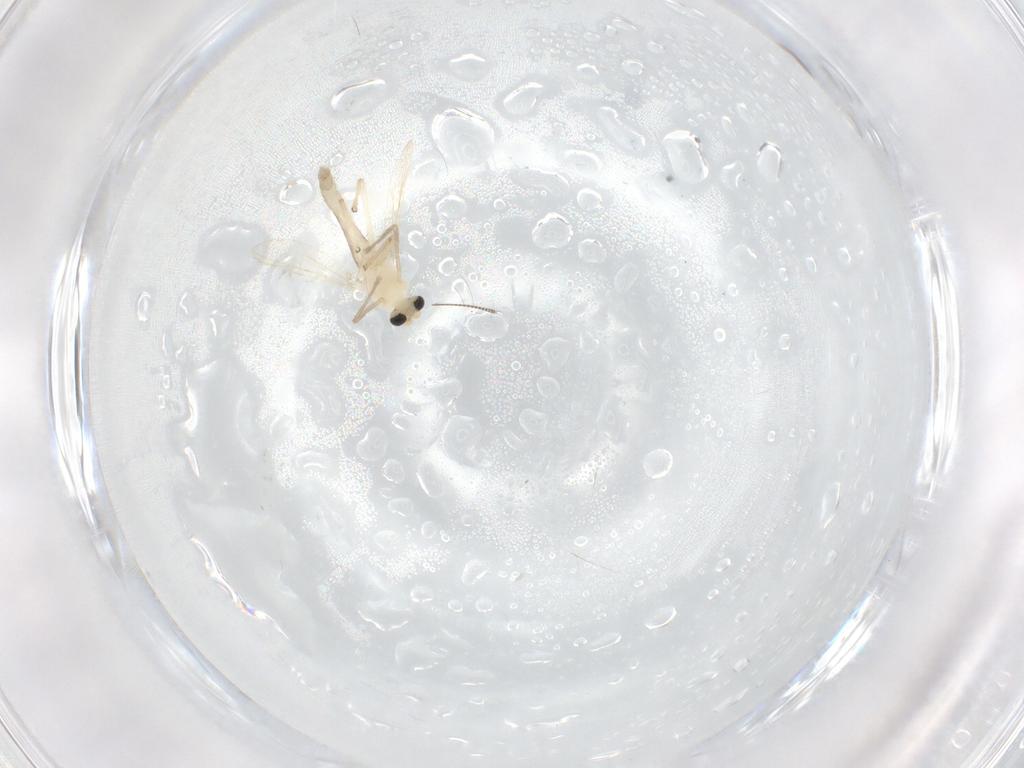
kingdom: Animalia
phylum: Arthropoda
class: Insecta
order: Diptera
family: Chironomidae
